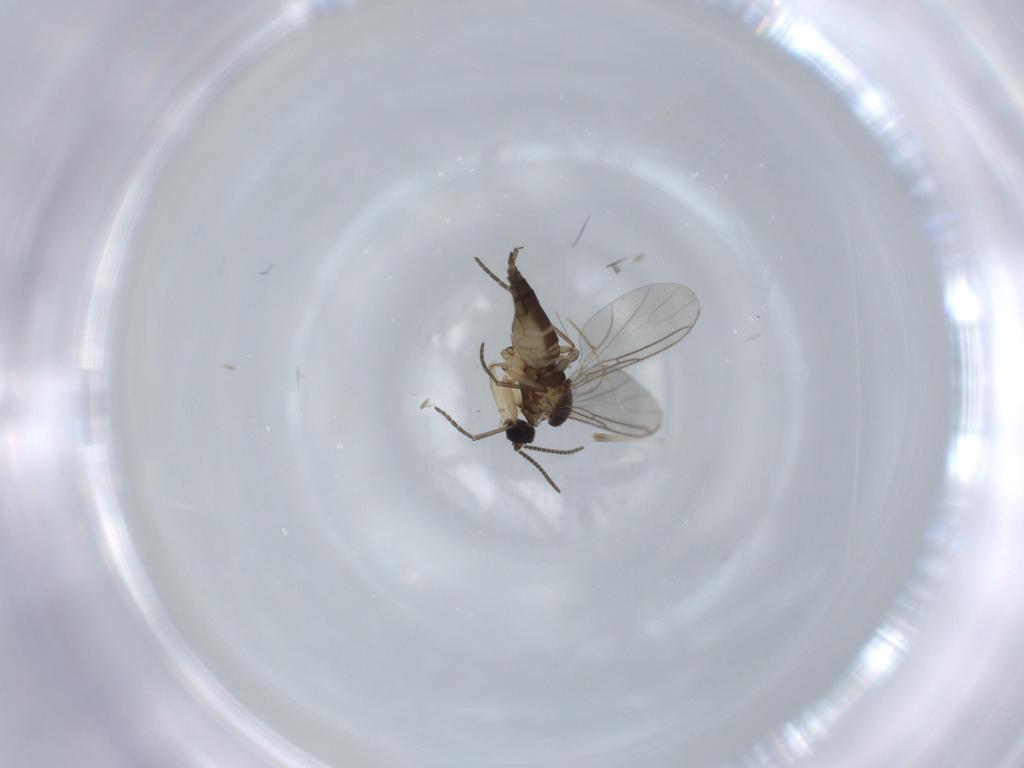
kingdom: Animalia
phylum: Arthropoda
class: Insecta
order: Diptera
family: Sciaridae
